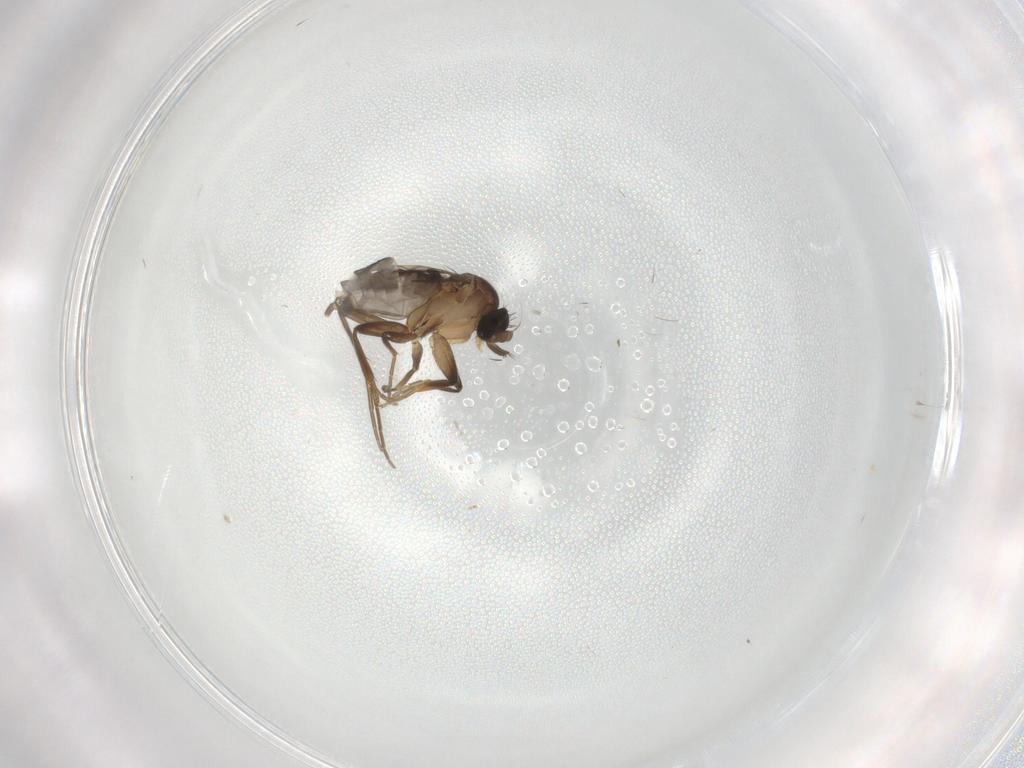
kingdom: Animalia
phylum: Arthropoda
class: Insecta
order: Diptera
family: Phoridae
